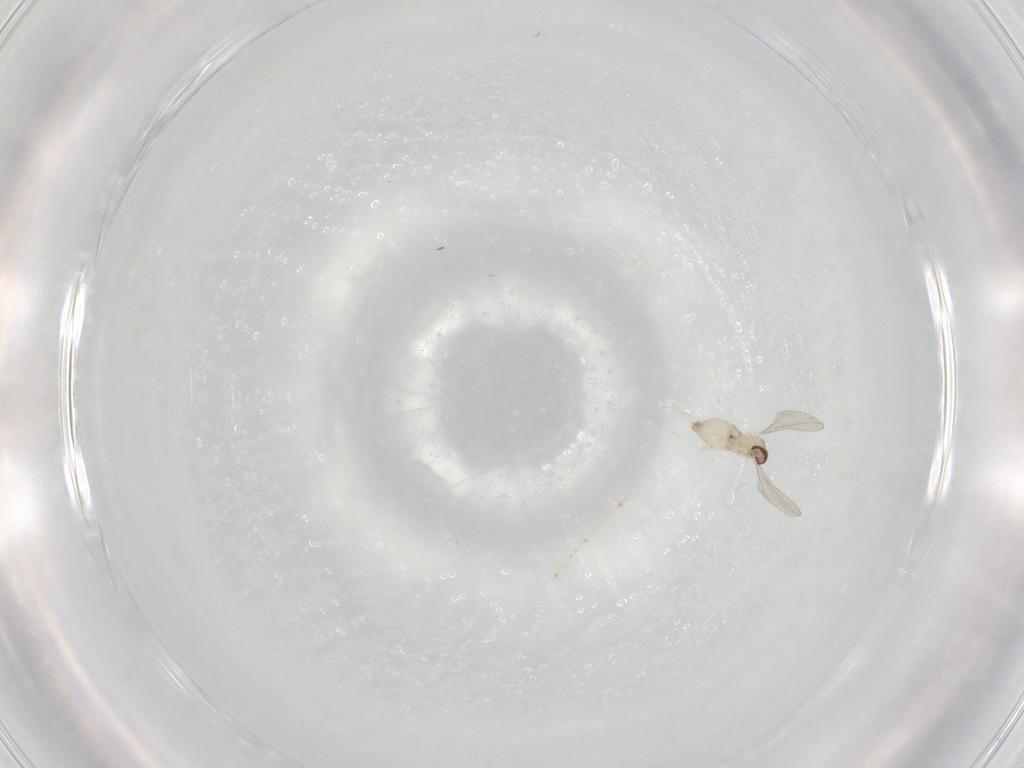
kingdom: Animalia
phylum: Arthropoda
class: Insecta
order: Diptera
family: Cecidomyiidae
